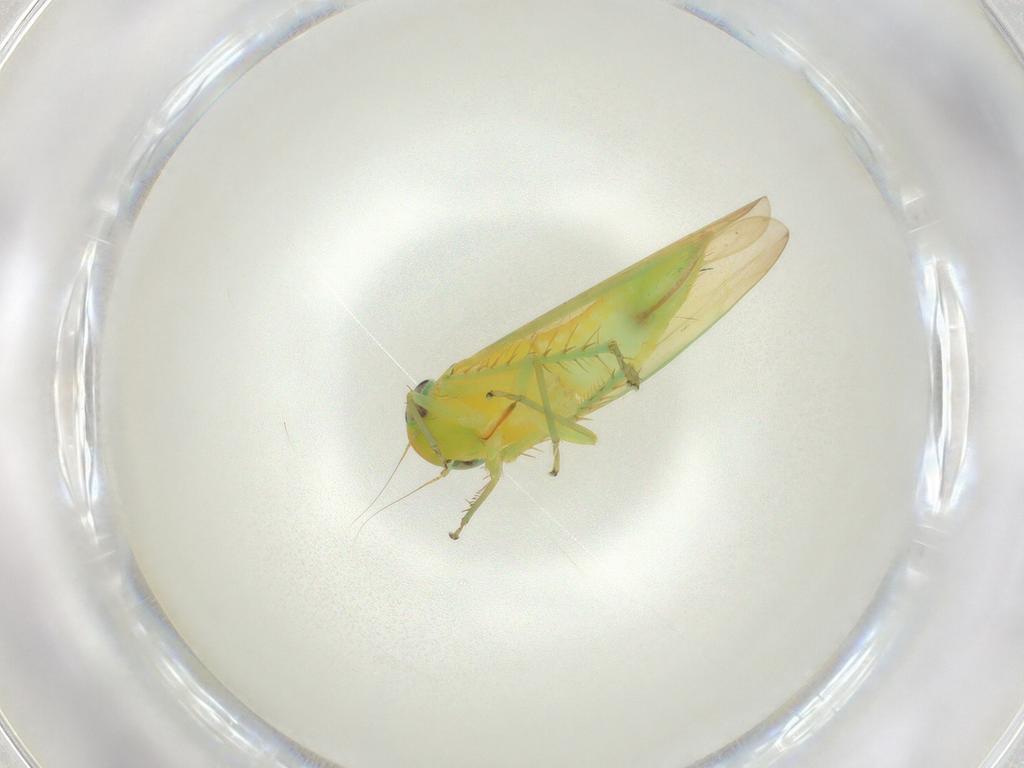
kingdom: Animalia
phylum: Arthropoda
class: Insecta
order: Hemiptera
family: Cicadellidae
